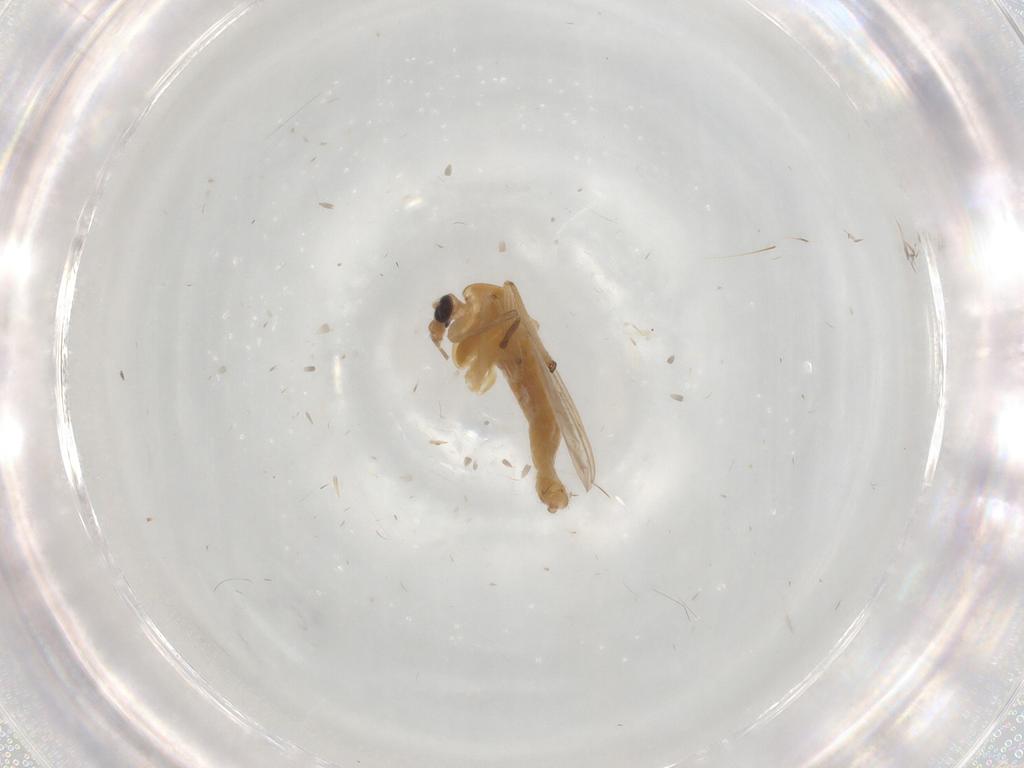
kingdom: Animalia
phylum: Arthropoda
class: Insecta
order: Diptera
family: Chironomidae
